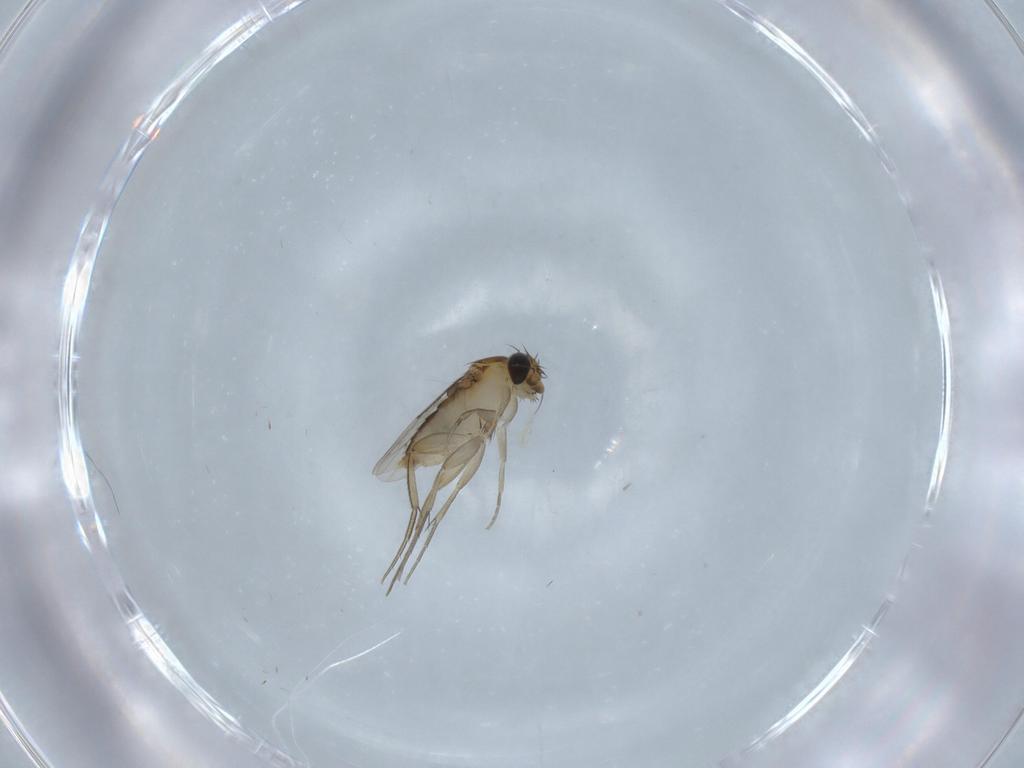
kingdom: Animalia
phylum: Arthropoda
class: Insecta
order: Diptera
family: Phoridae
